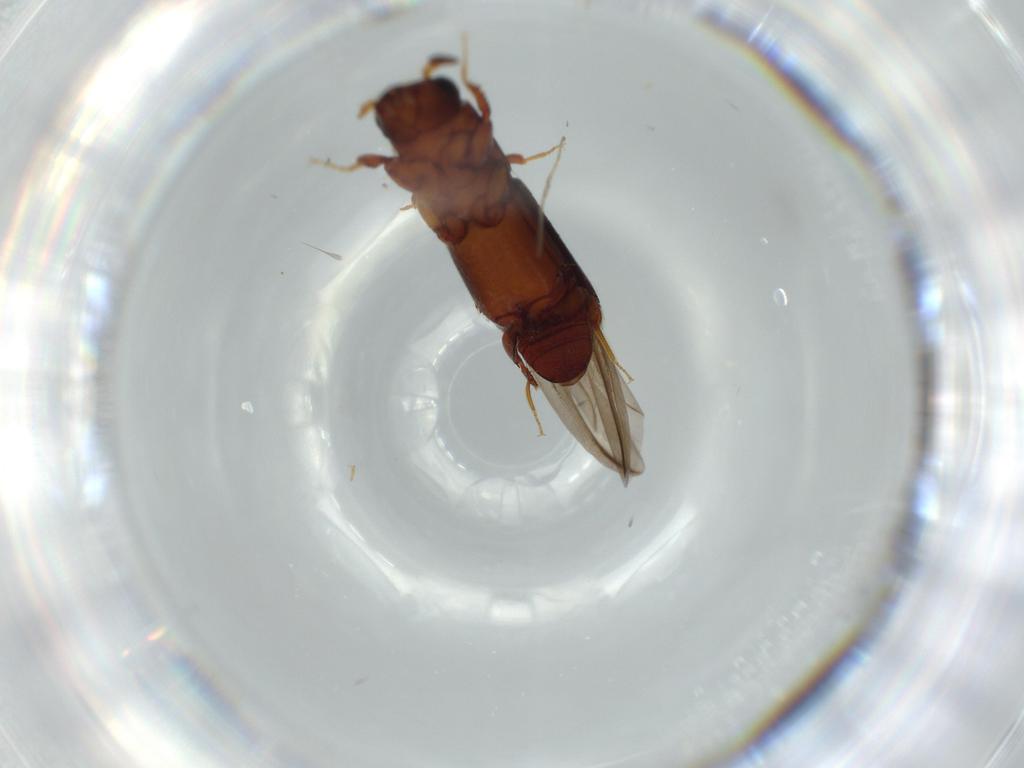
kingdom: Animalia
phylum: Arthropoda
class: Insecta
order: Coleoptera
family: Curculionidae
